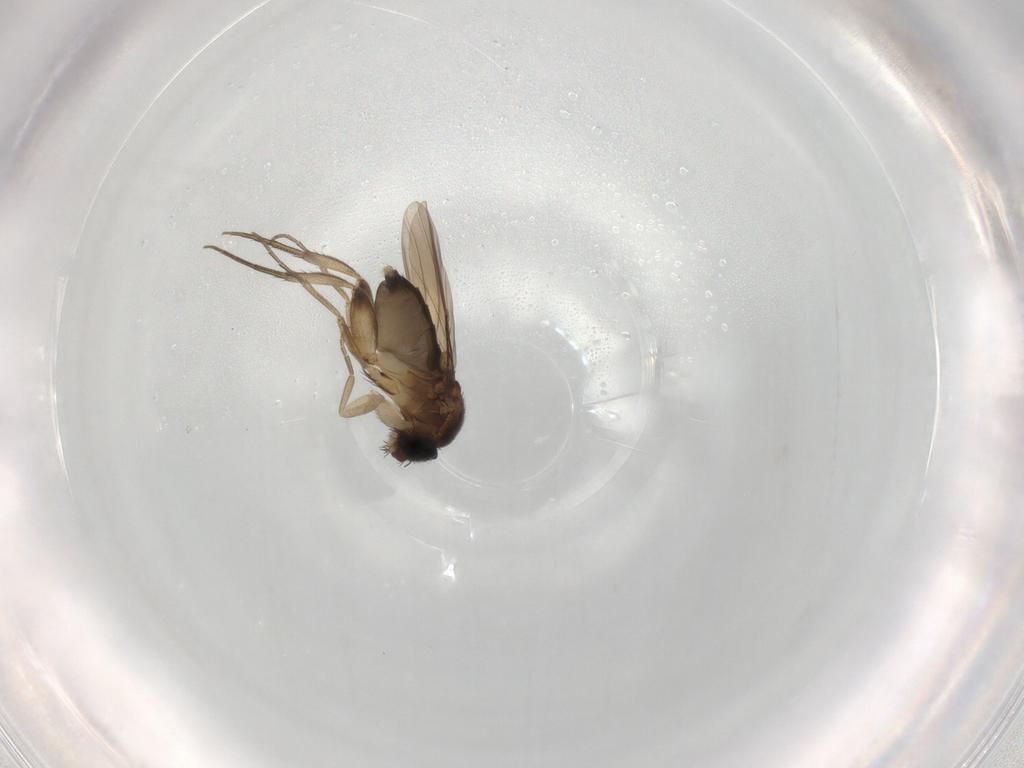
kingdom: Animalia
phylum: Arthropoda
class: Insecta
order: Diptera
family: Phoridae
